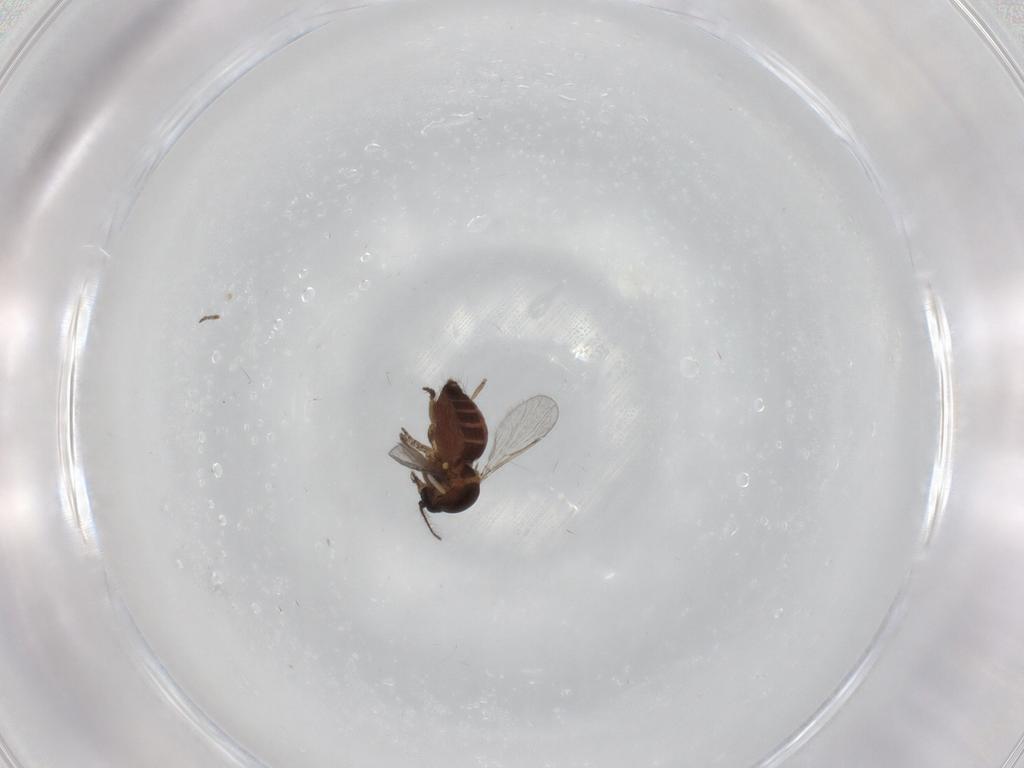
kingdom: Animalia
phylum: Arthropoda
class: Insecta
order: Diptera
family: Ceratopogonidae
